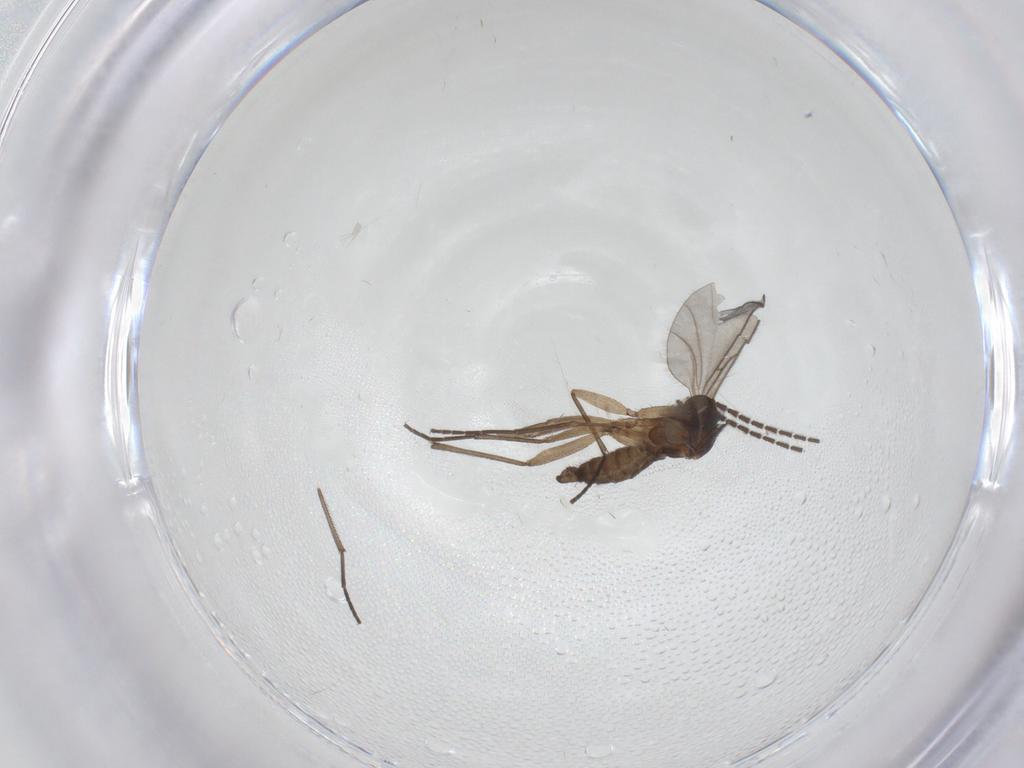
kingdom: Animalia
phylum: Arthropoda
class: Insecta
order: Diptera
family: Sciaridae
